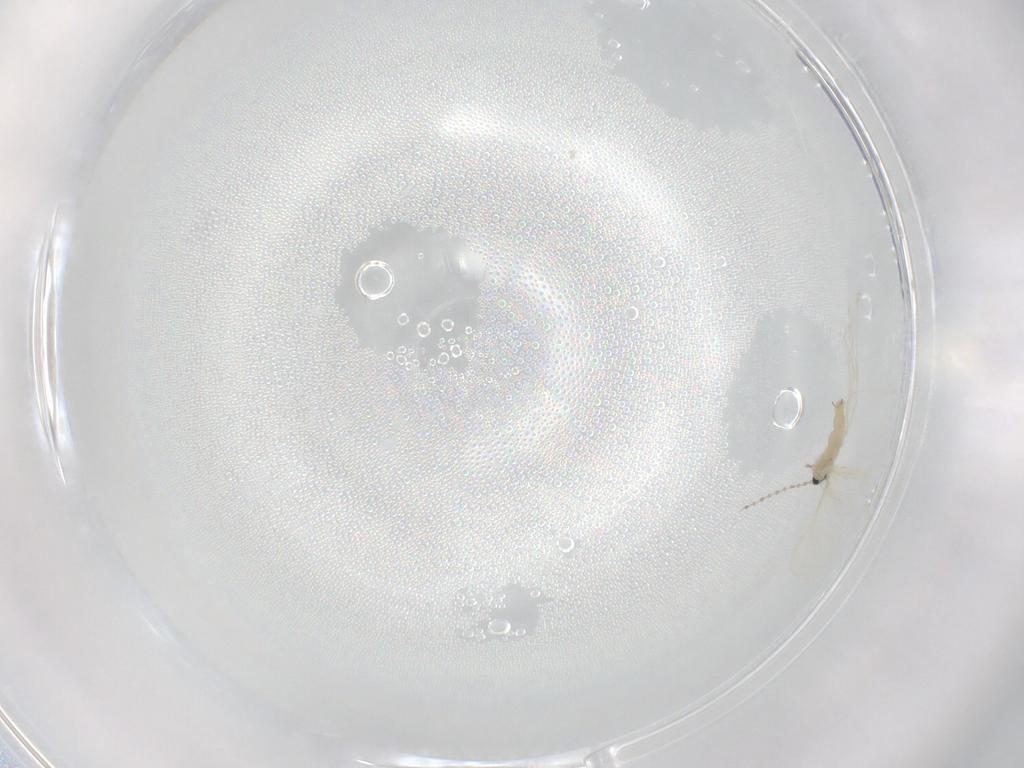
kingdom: Animalia
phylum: Arthropoda
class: Insecta
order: Diptera
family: Cecidomyiidae
